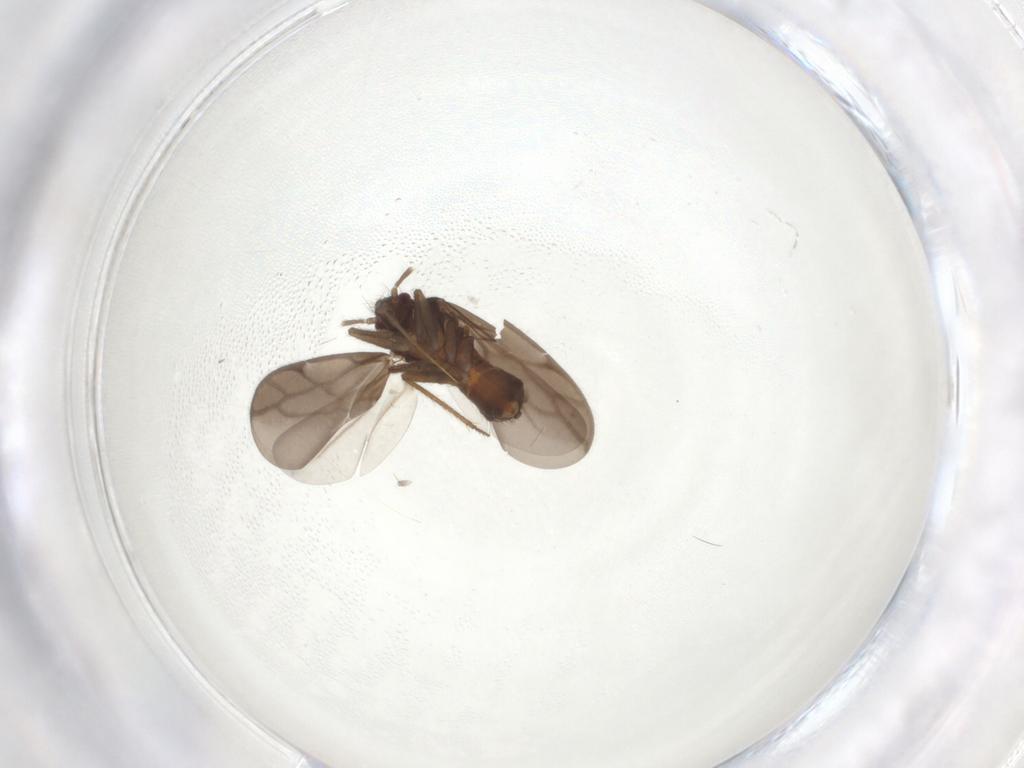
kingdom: Animalia
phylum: Arthropoda
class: Insecta
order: Hemiptera
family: Ceratocombidae
